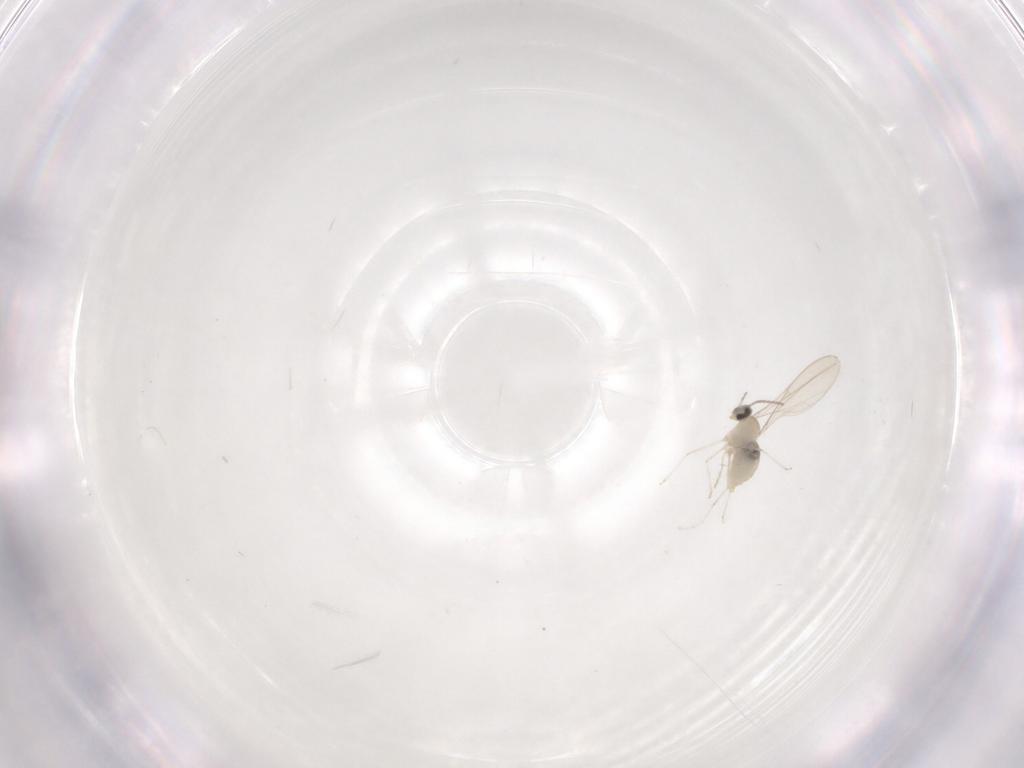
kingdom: Animalia
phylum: Arthropoda
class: Insecta
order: Diptera
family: Cecidomyiidae
